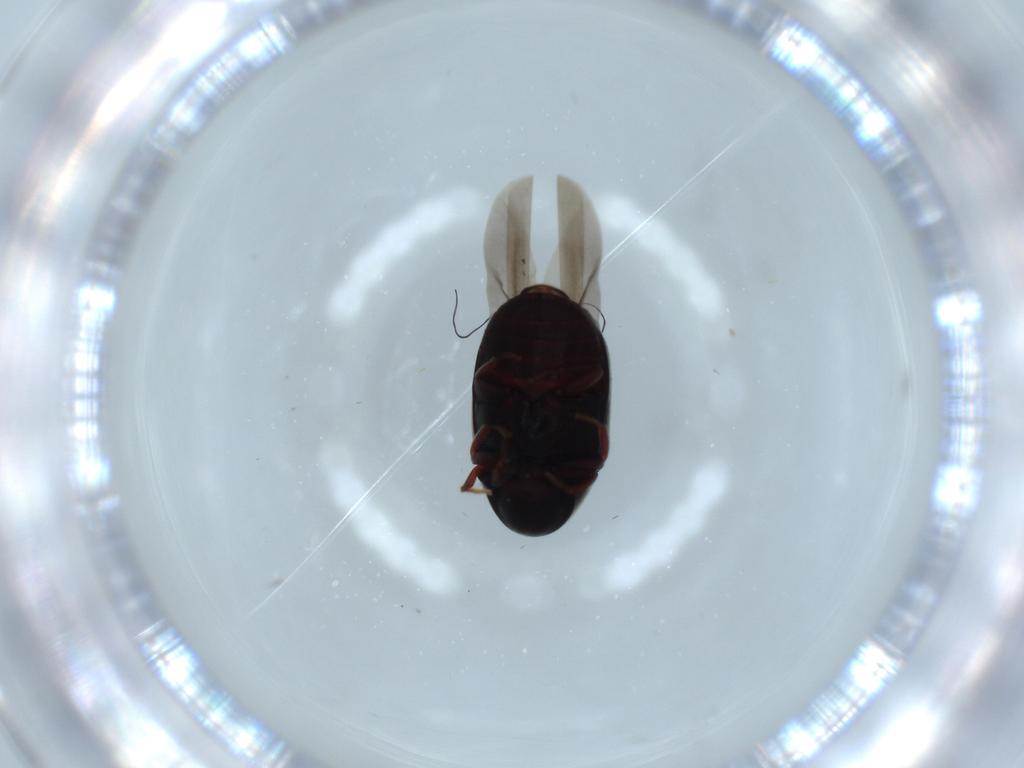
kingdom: Animalia
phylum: Arthropoda
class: Insecta
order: Coleoptera
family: Chrysomelidae
